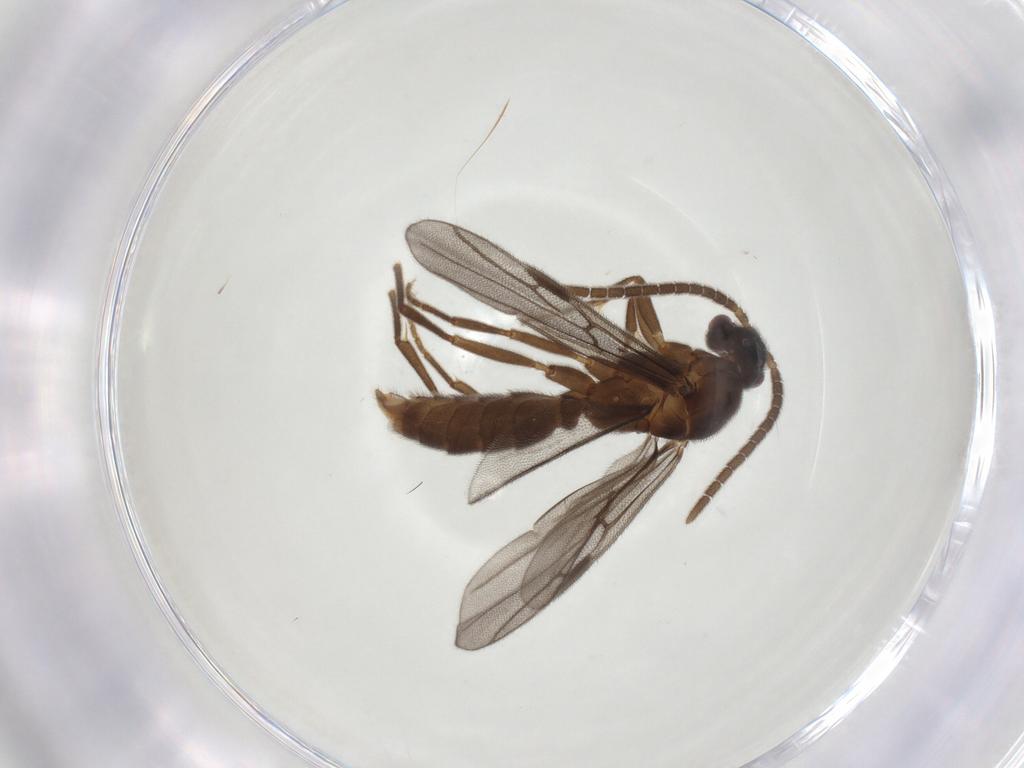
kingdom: Animalia
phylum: Arthropoda
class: Insecta
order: Hymenoptera
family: Formicidae
